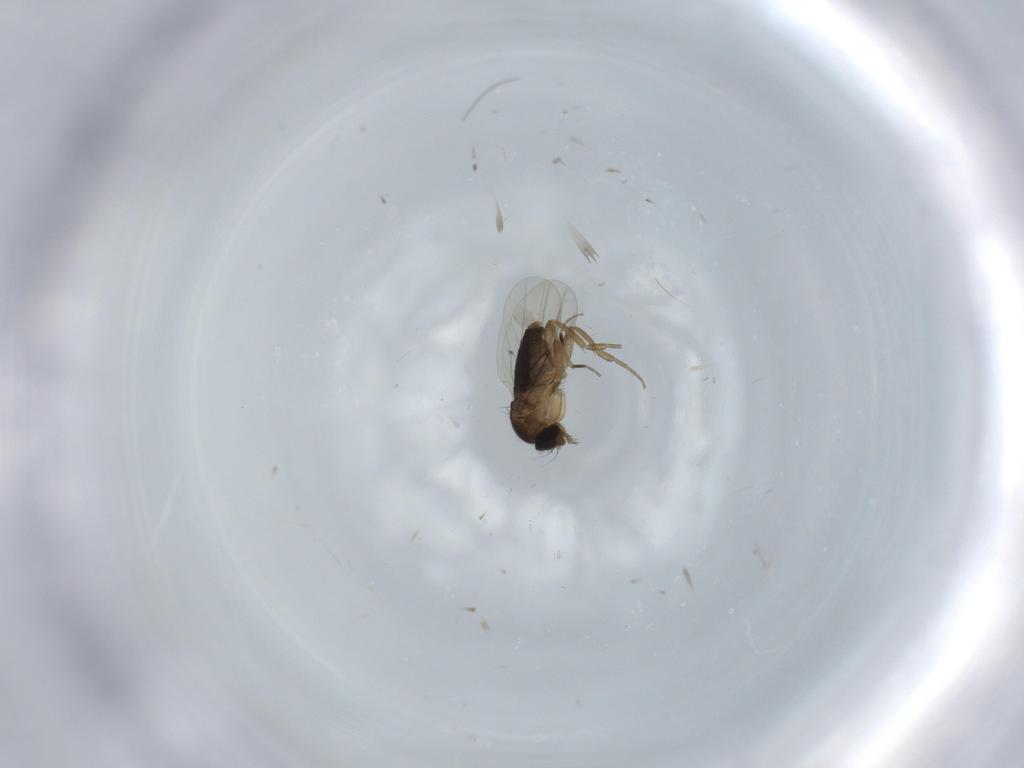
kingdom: Animalia
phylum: Arthropoda
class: Insecta
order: Diptera
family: Phoridae
